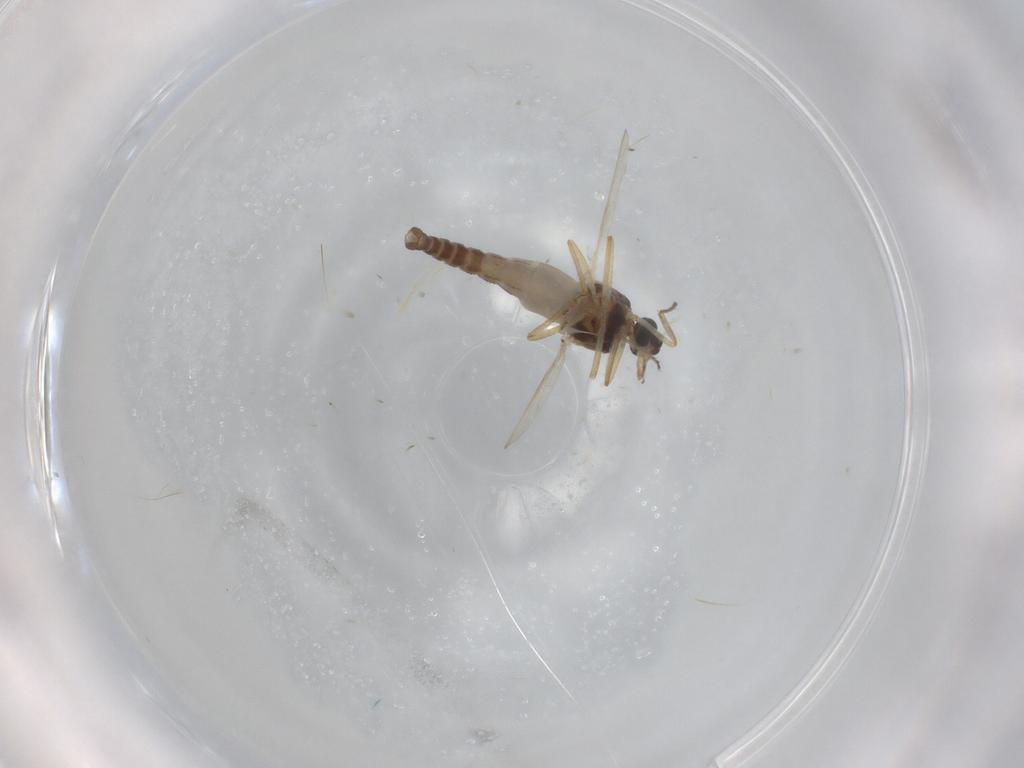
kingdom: Animalia
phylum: Arthropoda
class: Insecta
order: Diptera
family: Ceratopogonidae
